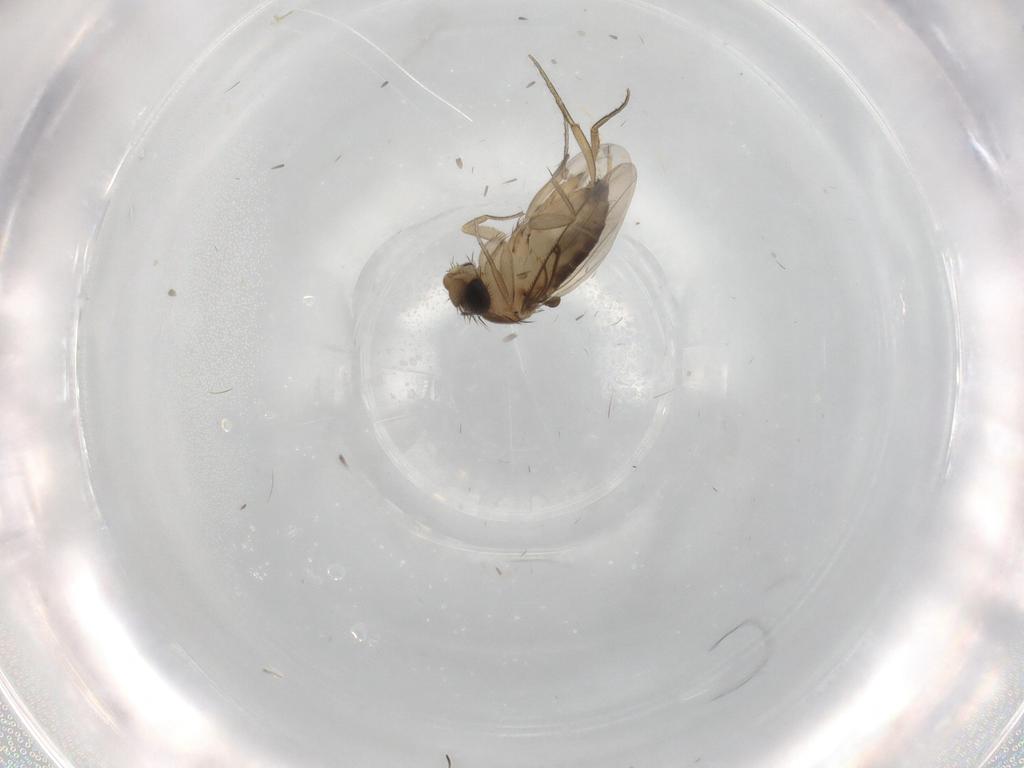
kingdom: Animalia
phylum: Arthropoda
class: Insecta
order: Diptera
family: Phoridae
